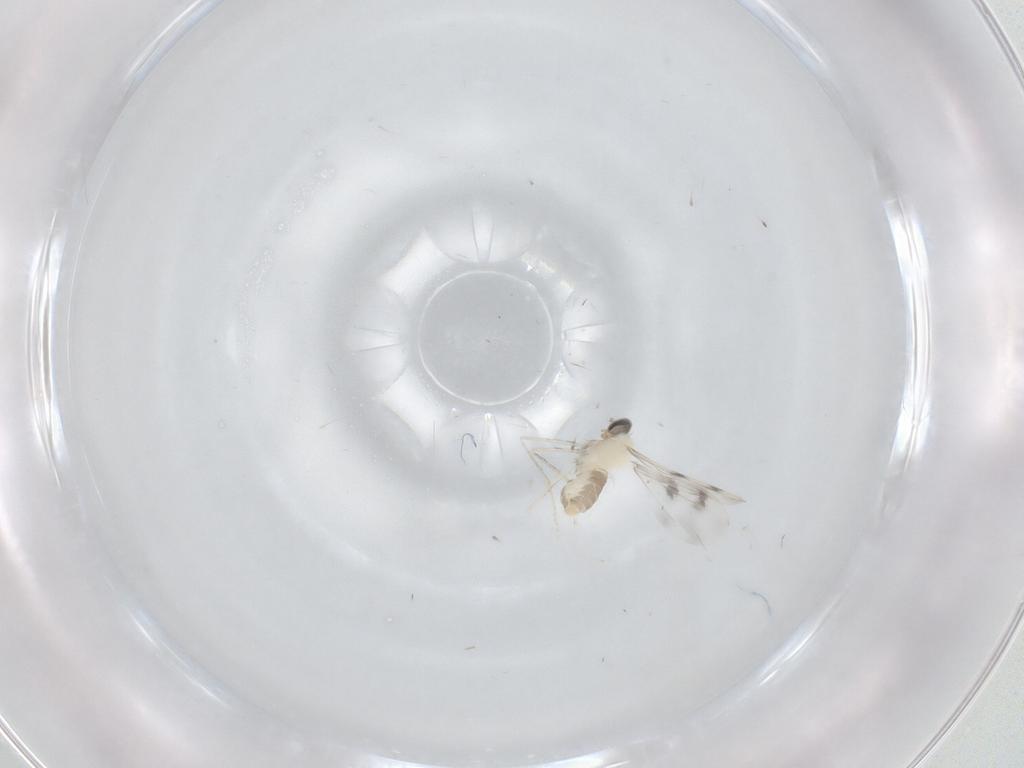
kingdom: Animalia
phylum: Arthropoda
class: Insecta
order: Diptera
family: Cecidomyiidae
